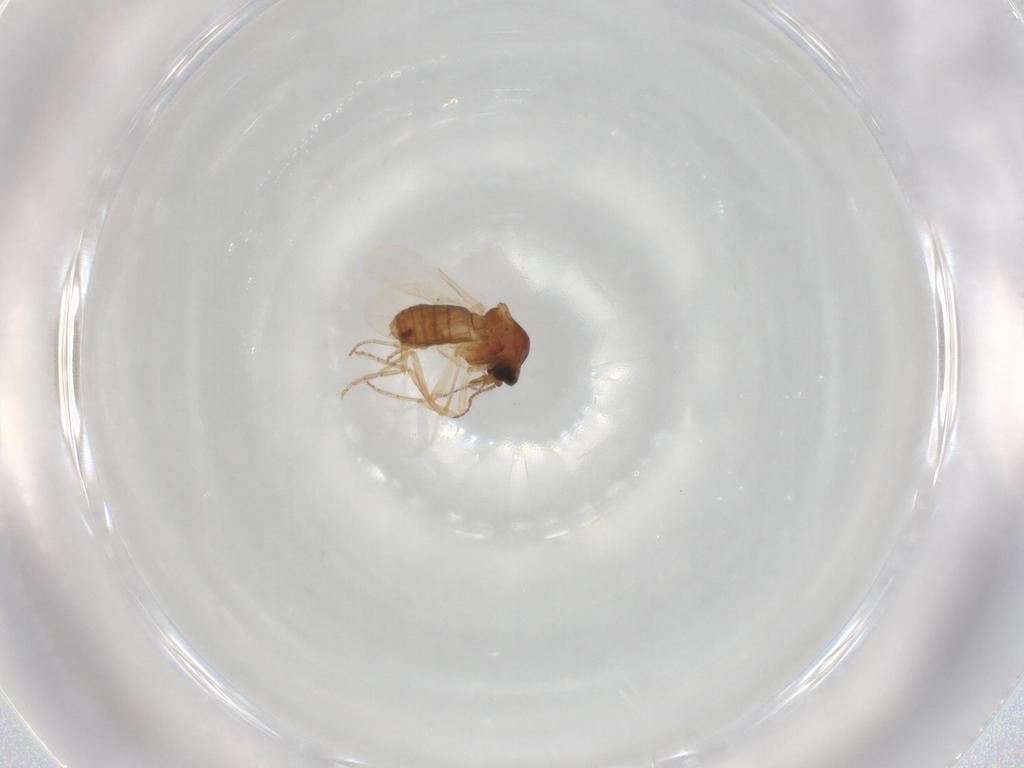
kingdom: Animalia
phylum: Arthropoda
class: Insecta
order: Diptera
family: Ceratopogonidae
